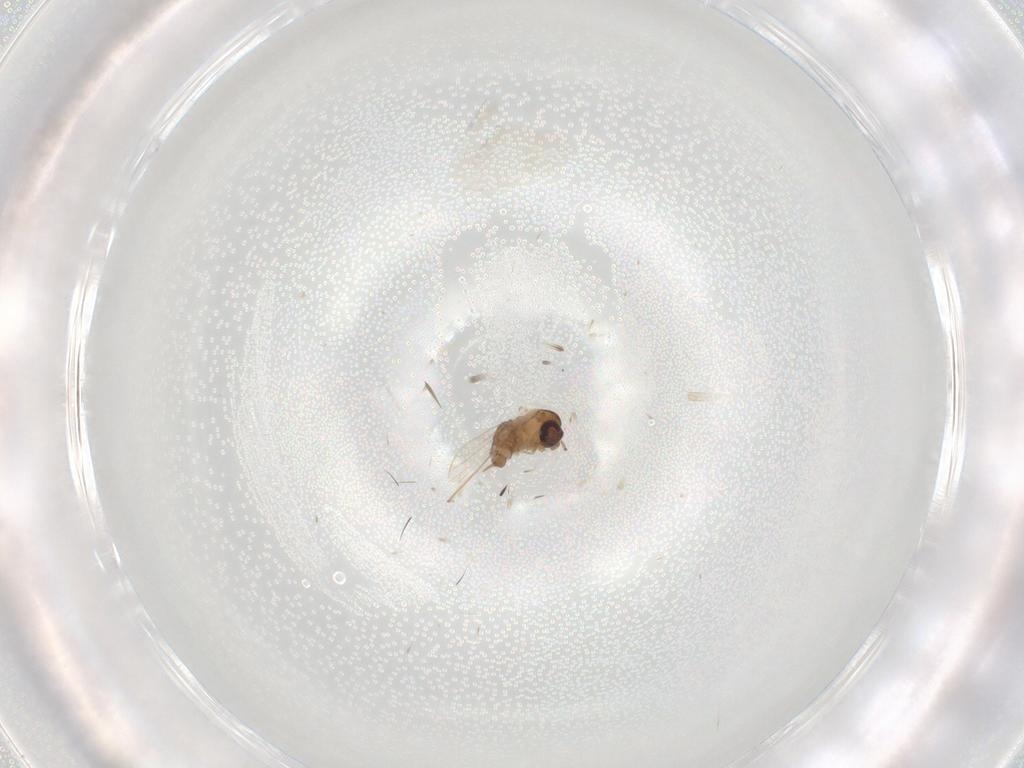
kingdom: Animalia
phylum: Arthropoda
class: Insecta
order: Diptera
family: Psychodidae
